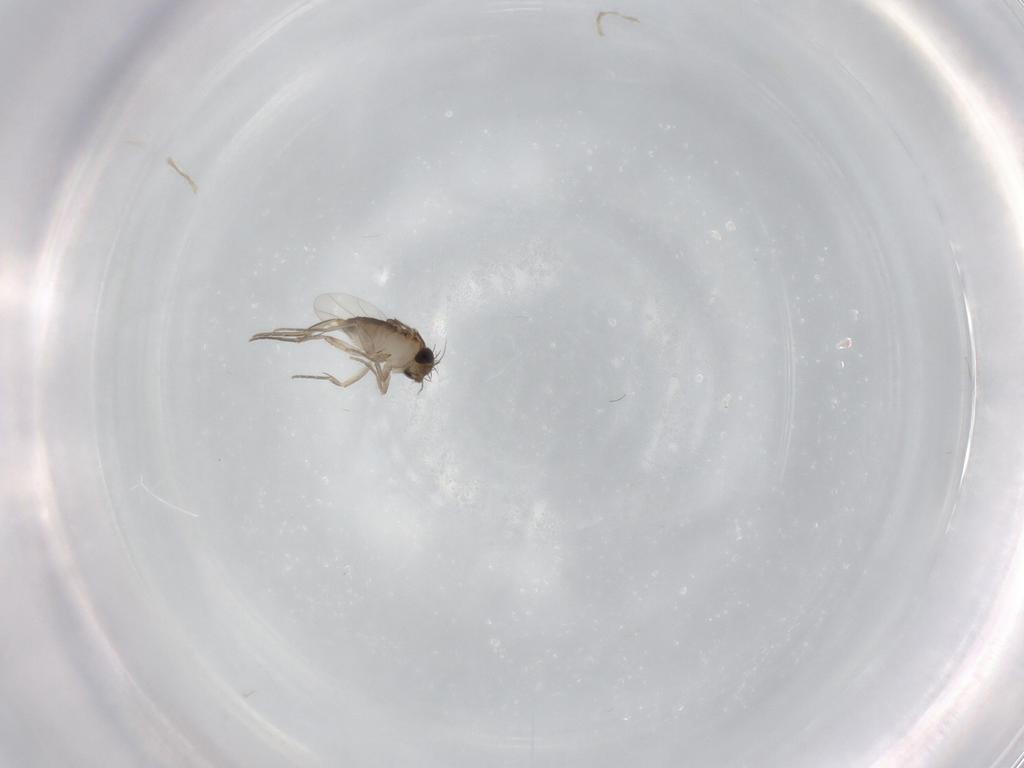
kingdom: Animalia
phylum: Arthropoda
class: Insecta
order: Diptera
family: Phoridae
